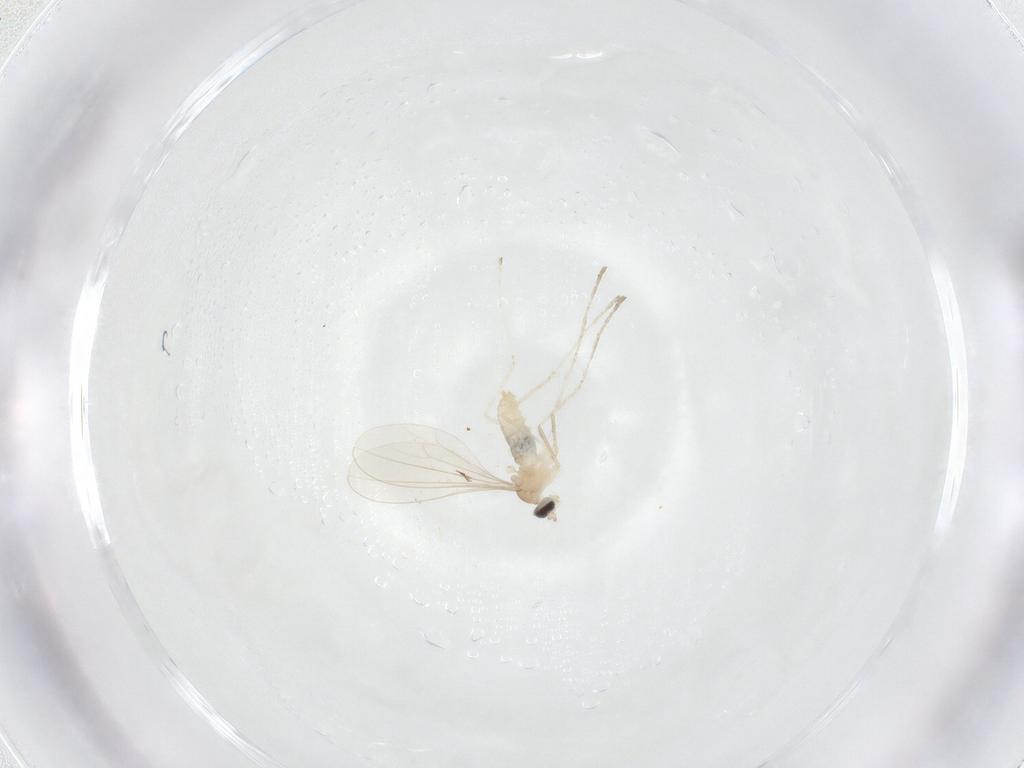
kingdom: Animalia
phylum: Arthropoda
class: Insecta
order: Diptera
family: Cecidomyiidae
